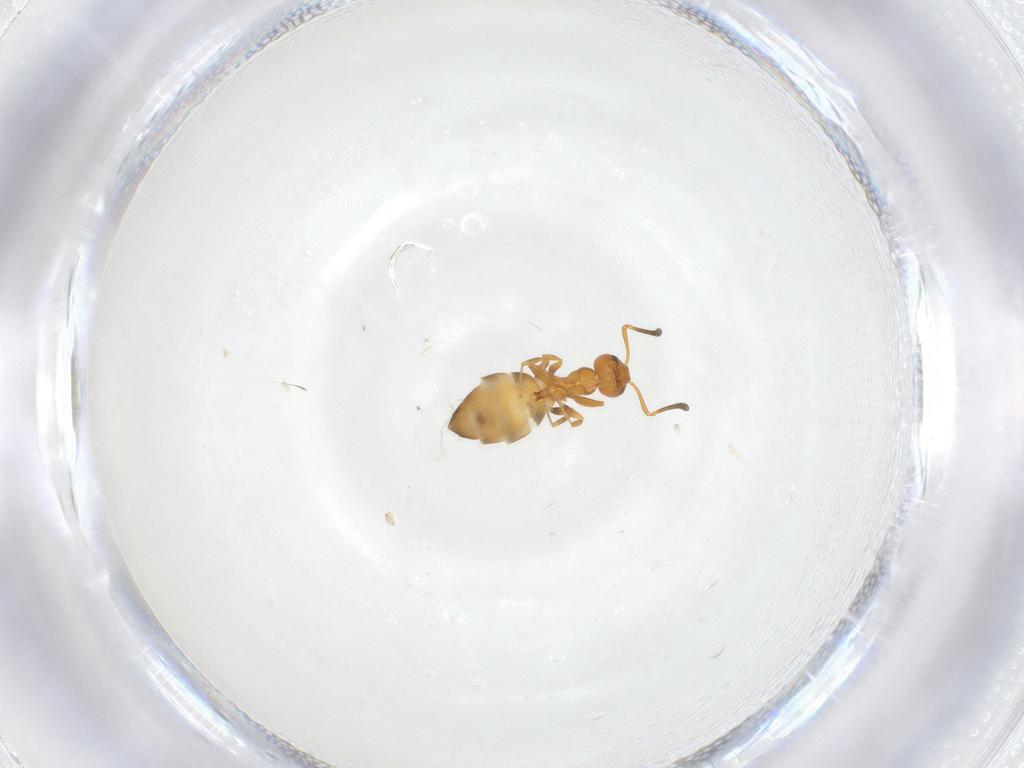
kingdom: Animalia
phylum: Arthropoda
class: Insecta
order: Hymenoptera
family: Formicidae
